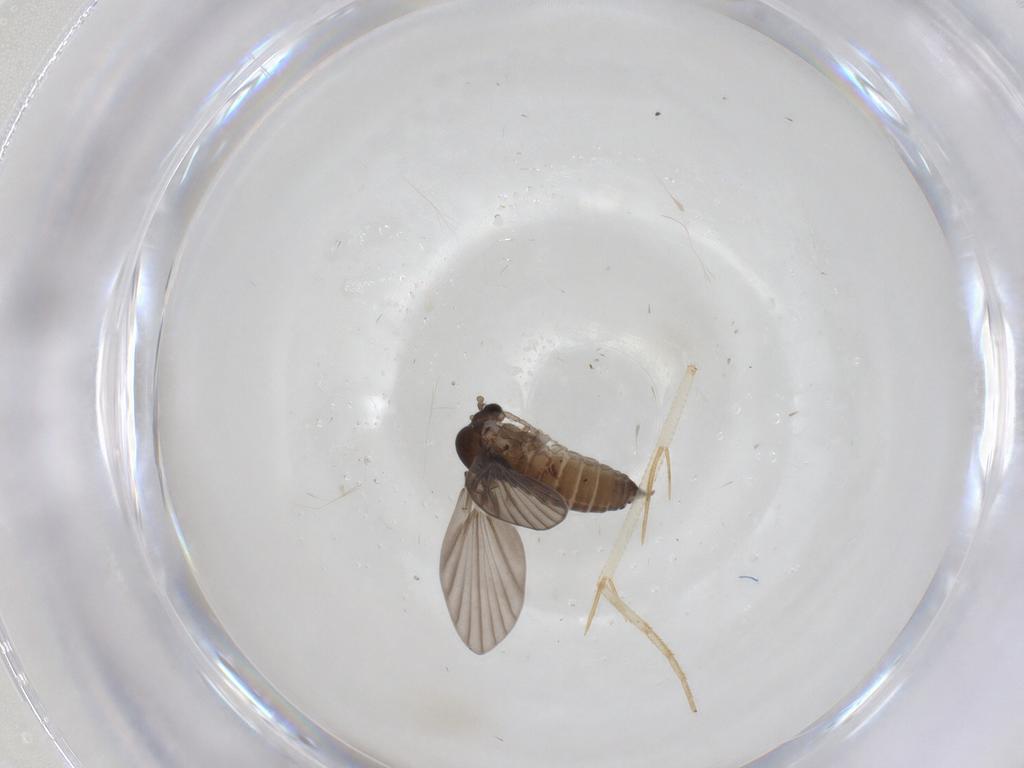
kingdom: Animalia
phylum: Arthropoda
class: Insecta
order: Diptera
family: Psychodidae
